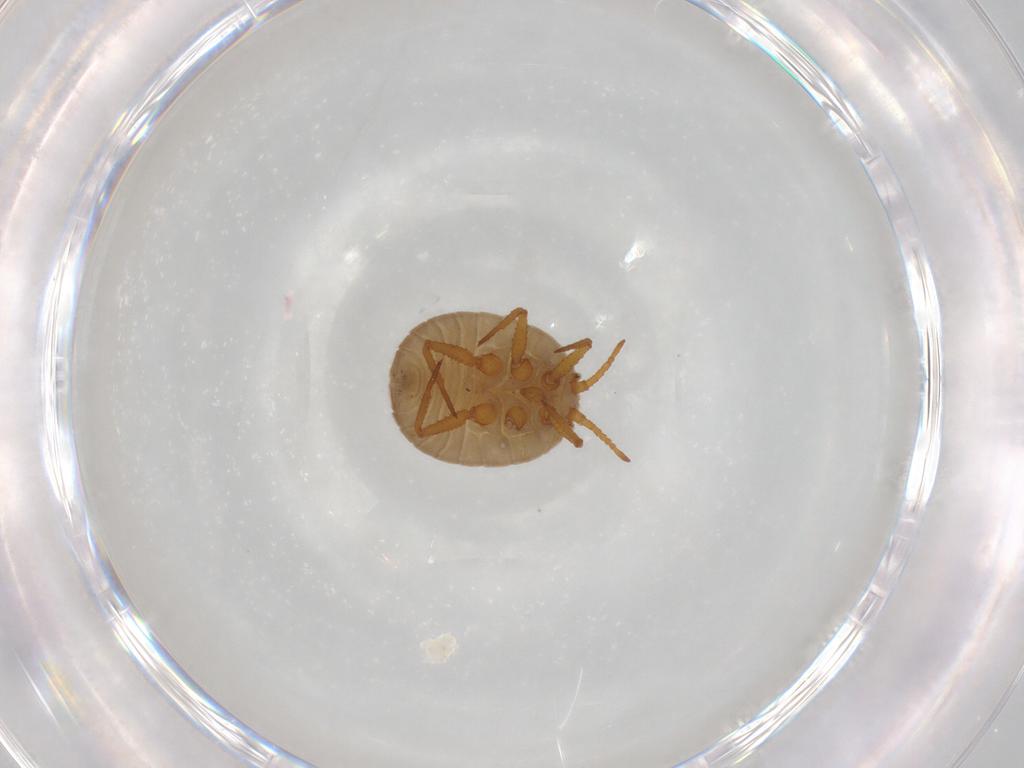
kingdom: Animalia
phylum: Arthropoda
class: Insecta
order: Hemiptera
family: Ortheziidae
